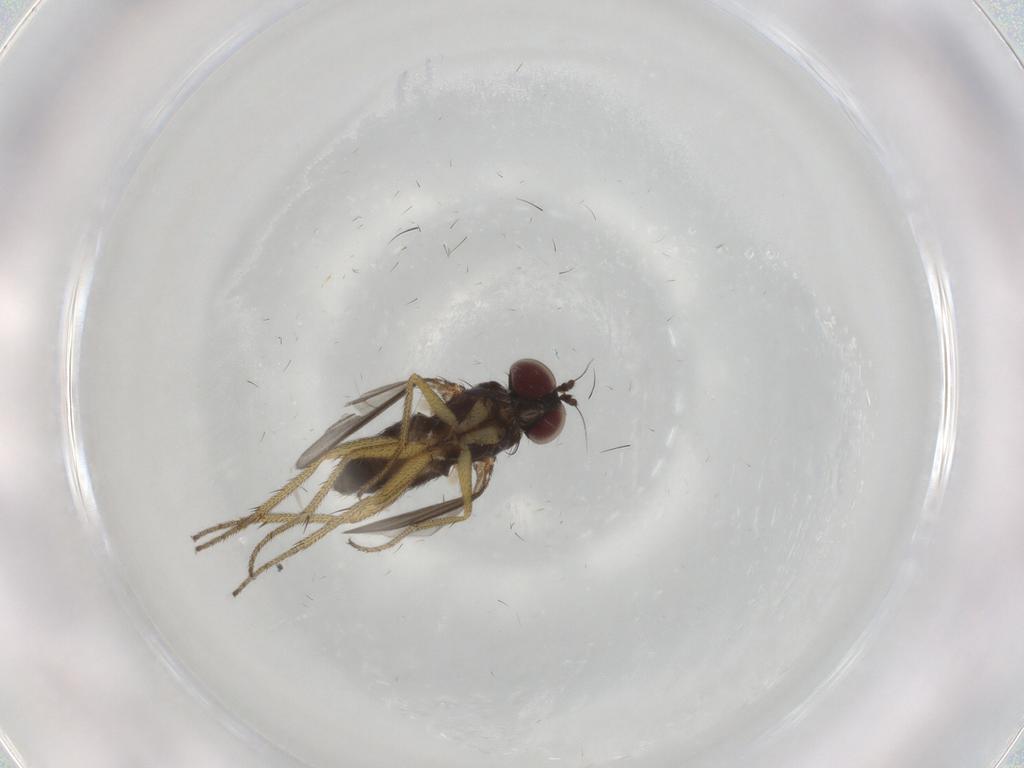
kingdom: Animalia
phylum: Arthropoda
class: Insecta
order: Diptera
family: Dolichopodidae
